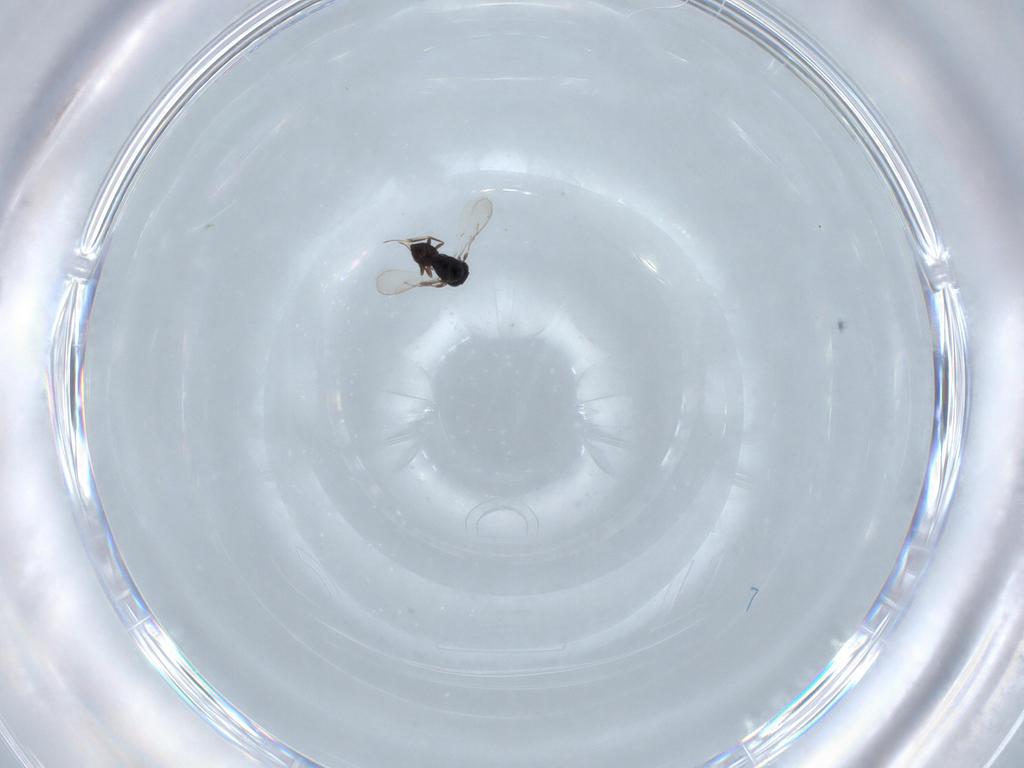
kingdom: Animalia
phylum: Arthropoda
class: Insecta
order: Hymenoptera
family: Scelionidae
